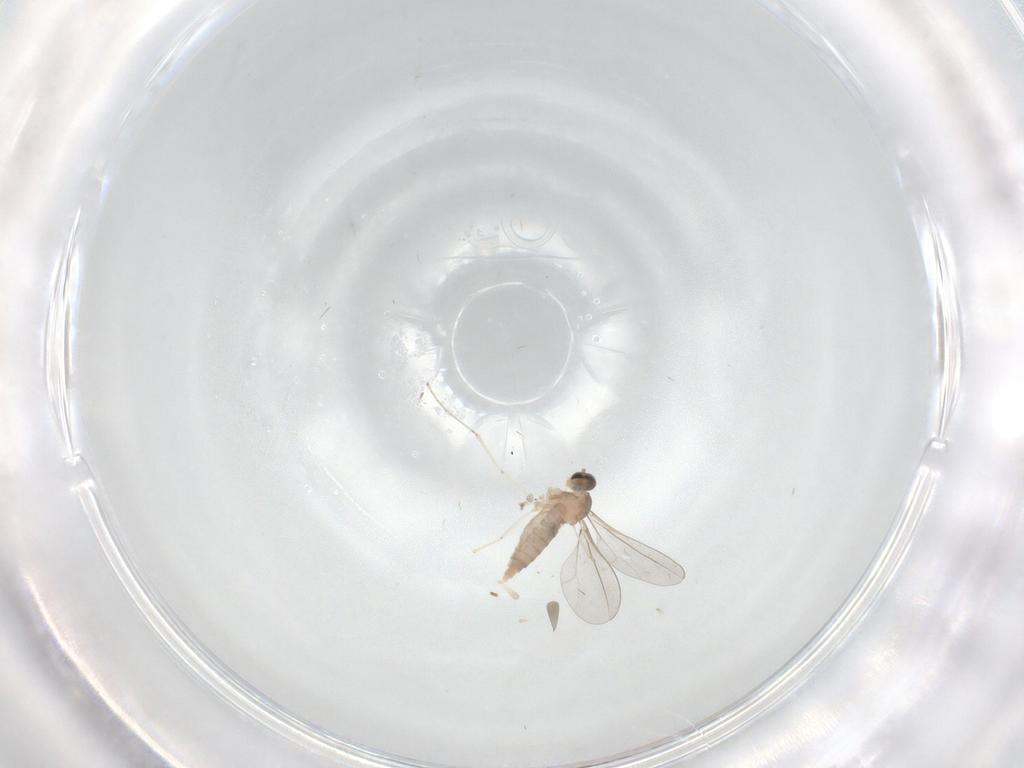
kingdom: Animalia
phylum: Arthropoda
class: Insecta
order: Diptera
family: Cecidomyiidae
